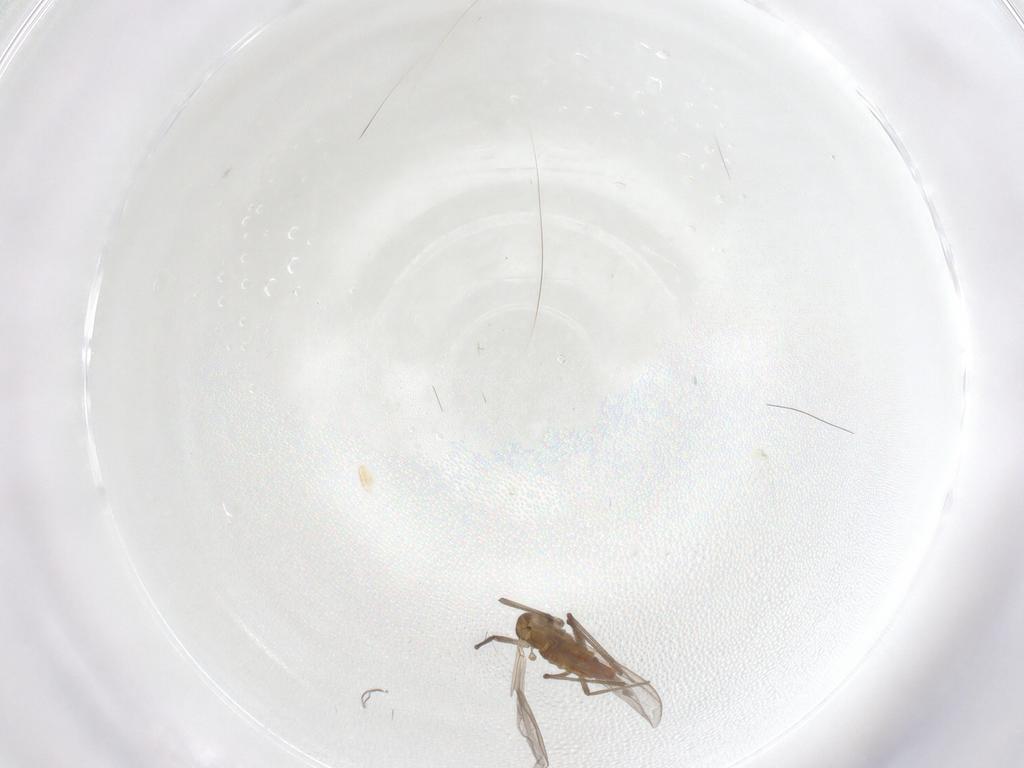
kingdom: Animalia
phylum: Arthropoda
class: Insecta
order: Diptera
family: Chironomidae
